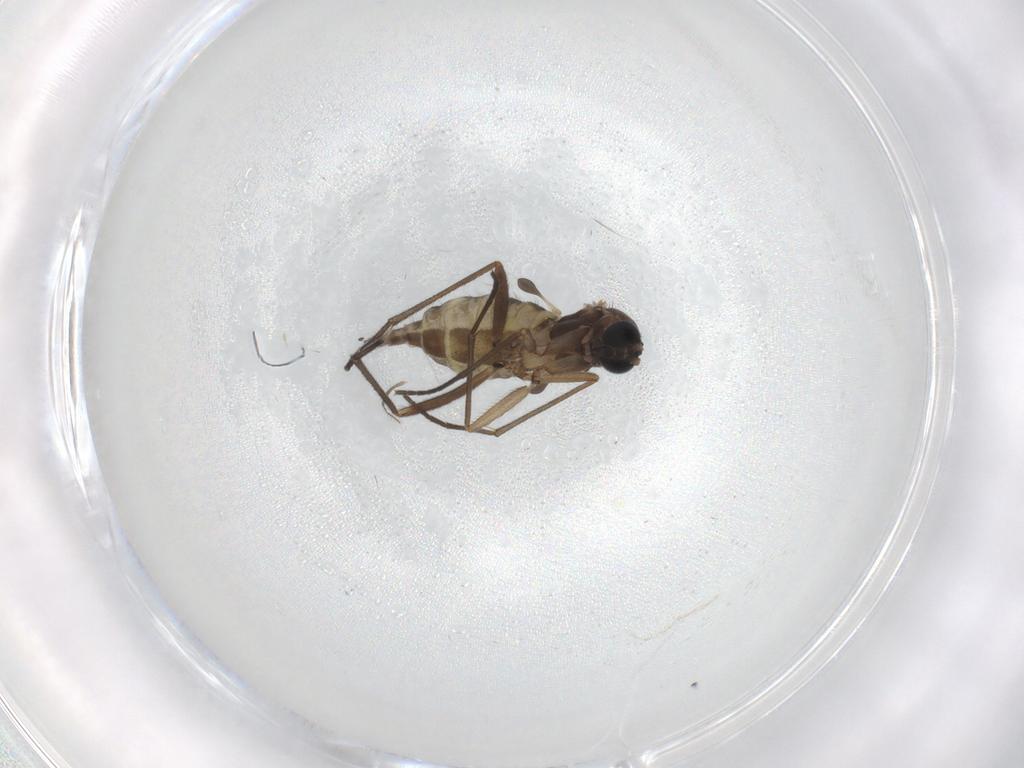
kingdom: Animalia
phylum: Arthropoda
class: Insecta
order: Diptera
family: Sciaridae
